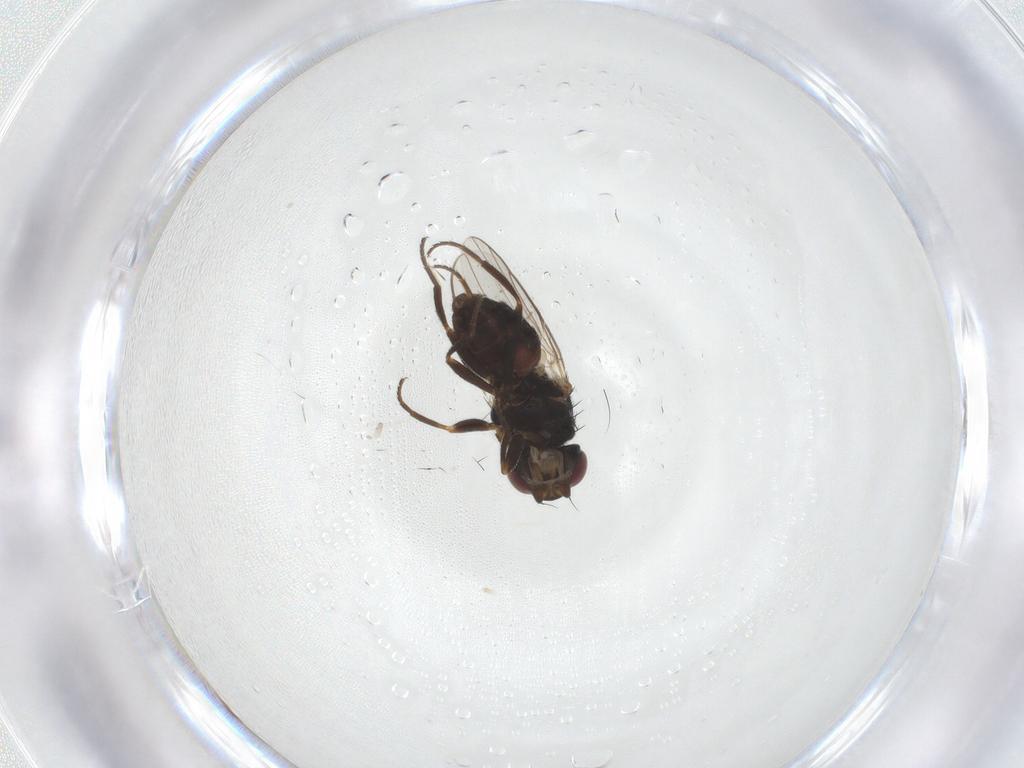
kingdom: Animalia
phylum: Arthropoda
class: Insecta
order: Diptera
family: Chloropidae
